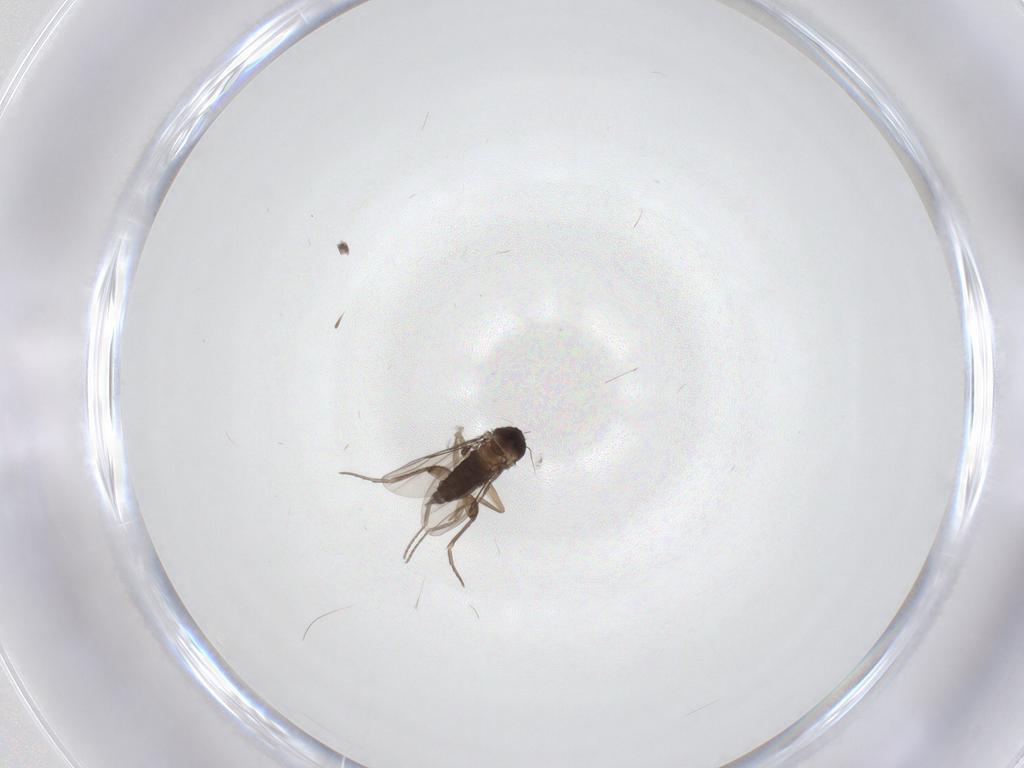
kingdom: Animalia
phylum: Arthropoda
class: Insecta
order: Diptera
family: Phoridae
